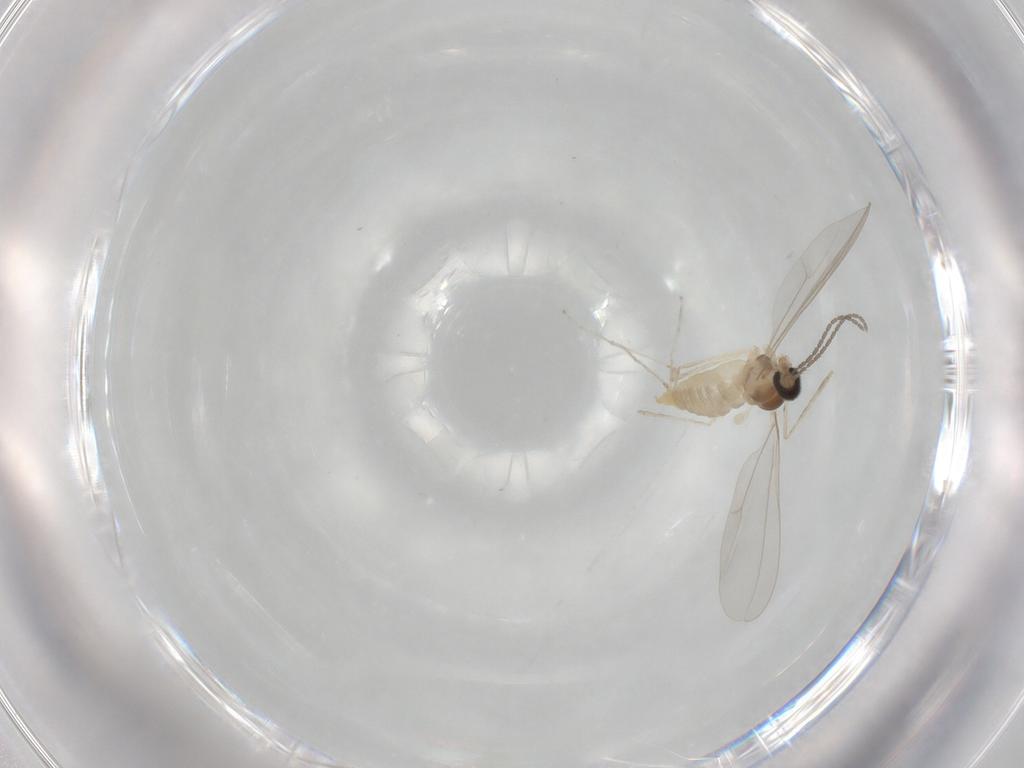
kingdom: Animalia
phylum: Arthropoda
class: Insecta
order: Diptera
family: Cecidomyiidae
